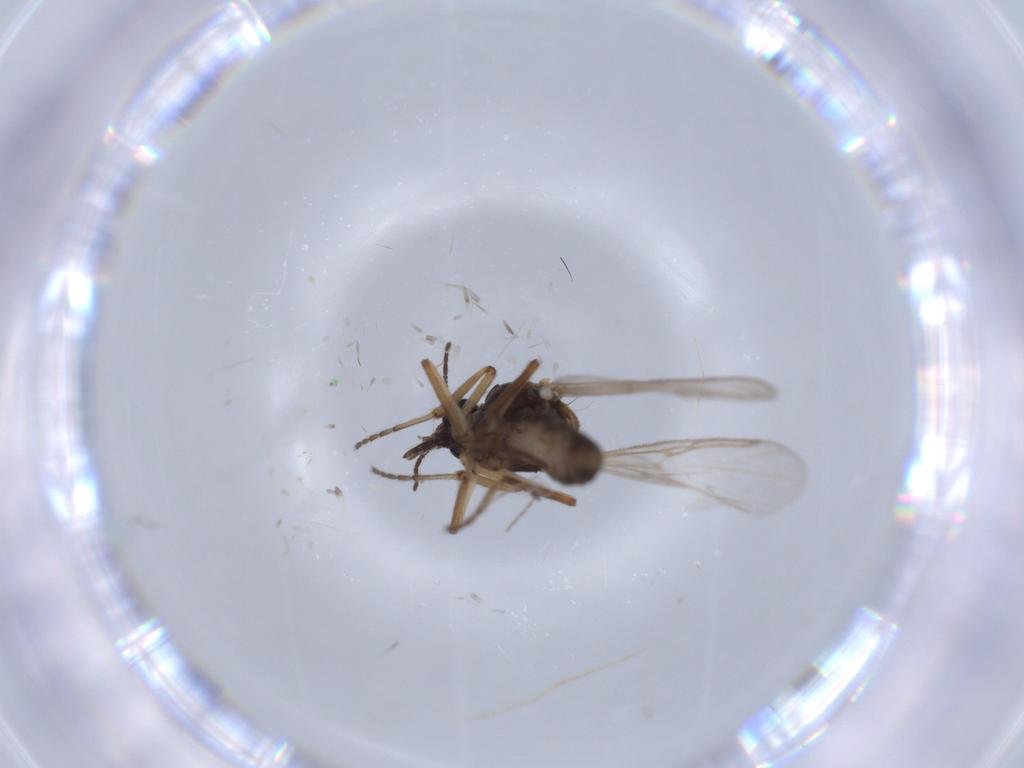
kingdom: Animalia
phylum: Arthropoda
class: Insecta
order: Diptera
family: Ceratopogonidae
